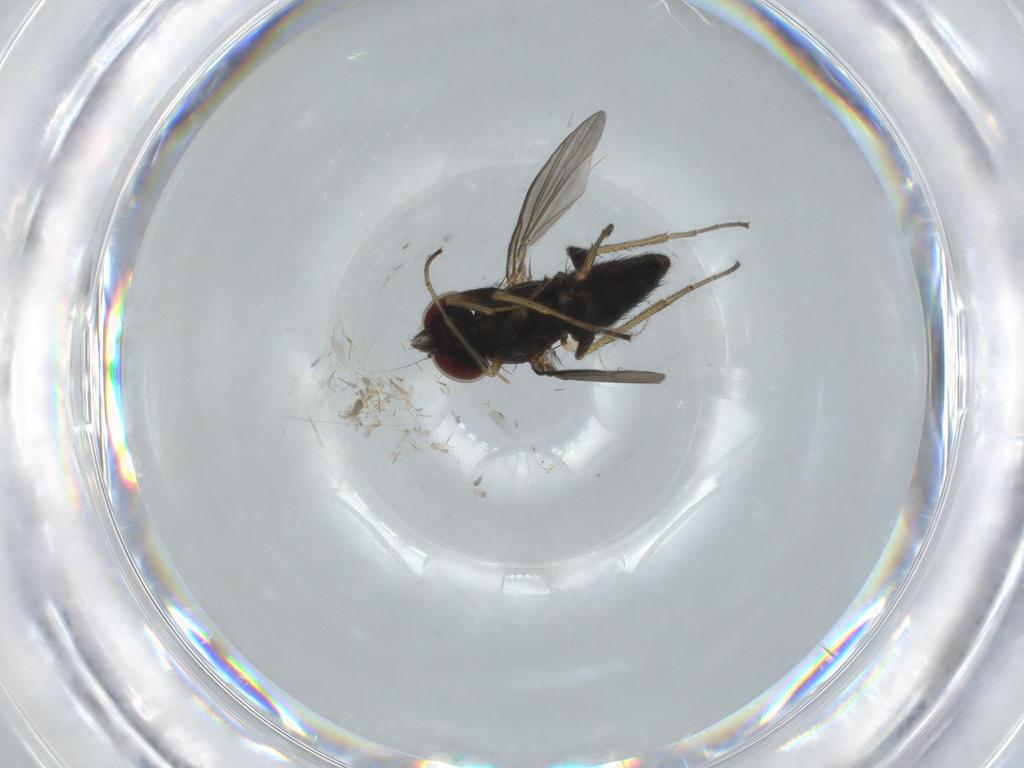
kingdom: Animalia
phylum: Arthropoda
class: Insecta
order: Diptera
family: Dolichopodidae
